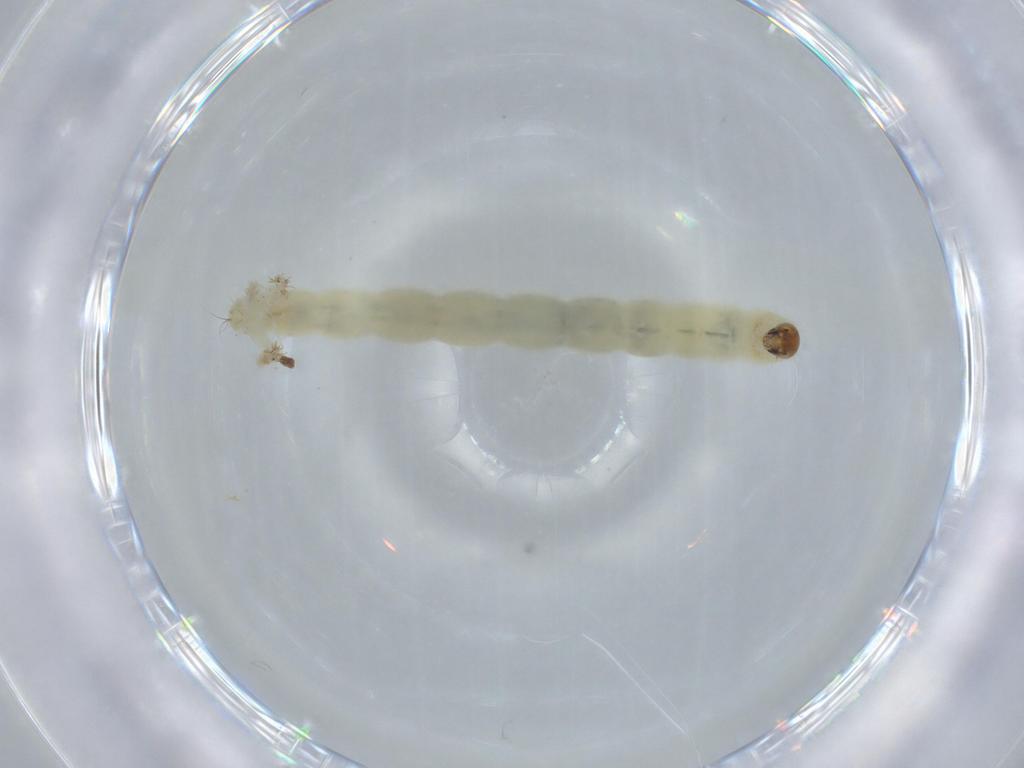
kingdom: Animalia
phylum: Arthropoda
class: Insecta
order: Diptera
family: Chironomidae
